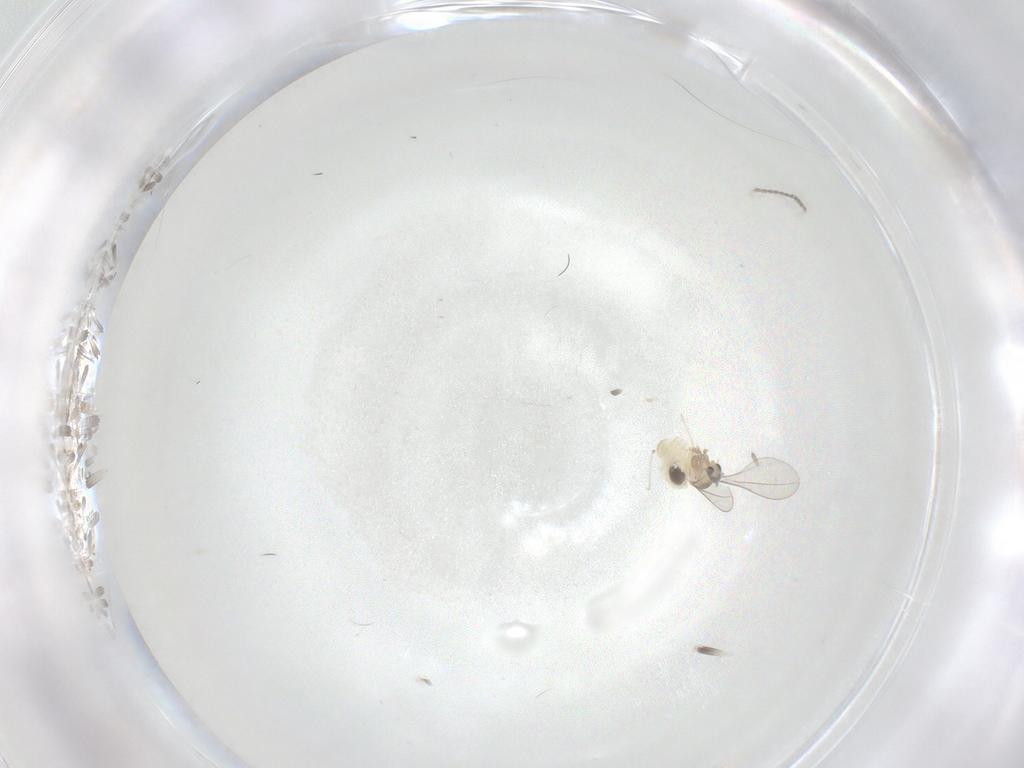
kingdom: Animalia
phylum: Arthropoda
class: Insecta
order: Diptera
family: Cecidomyiidae
